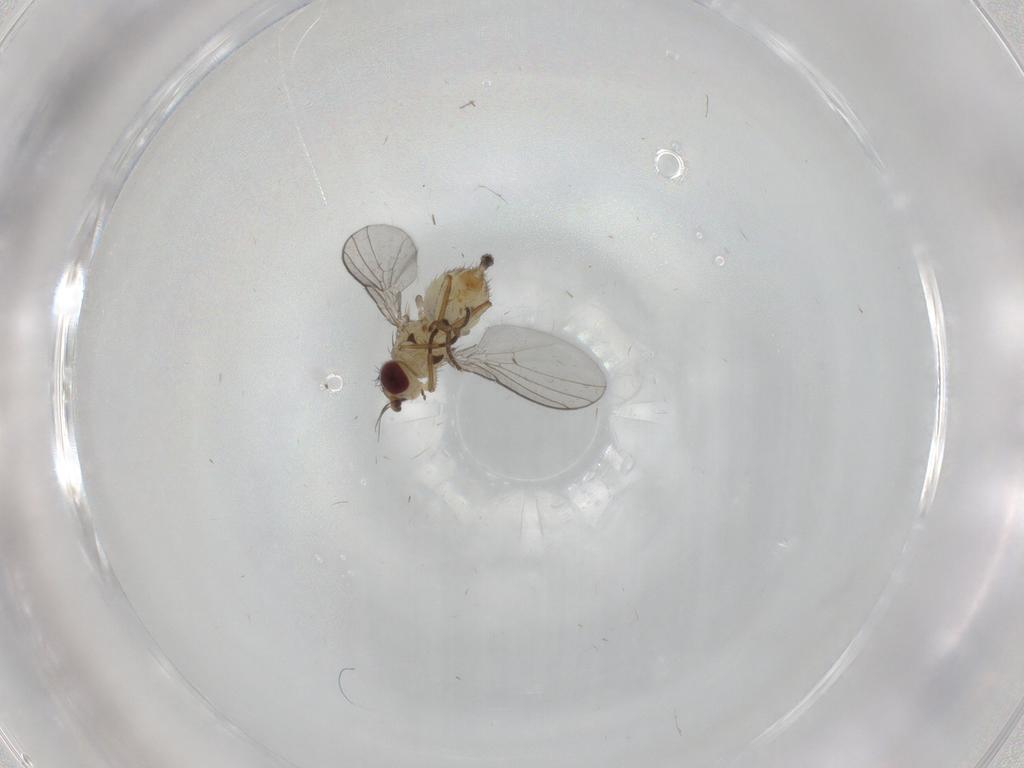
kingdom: Animalia
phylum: Arthropoda
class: Insecta
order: Diptera
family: Agromyzidae
